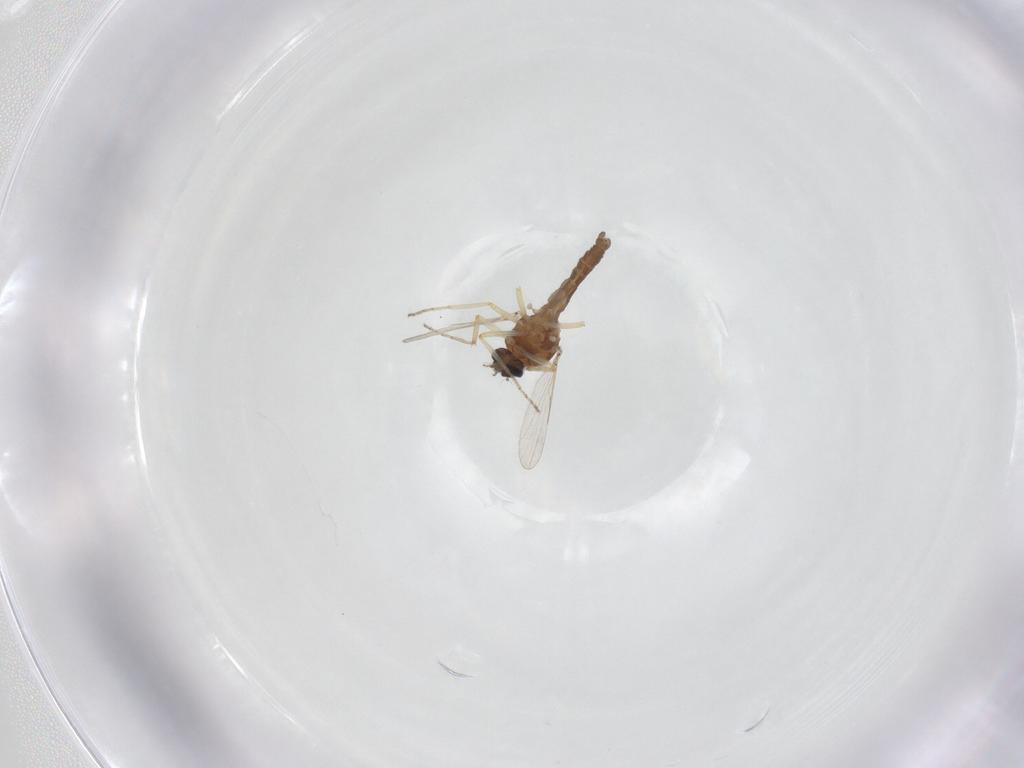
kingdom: Animalia
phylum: Arthropoda
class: Insecta
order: Diptera
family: Ceratopogonidae
